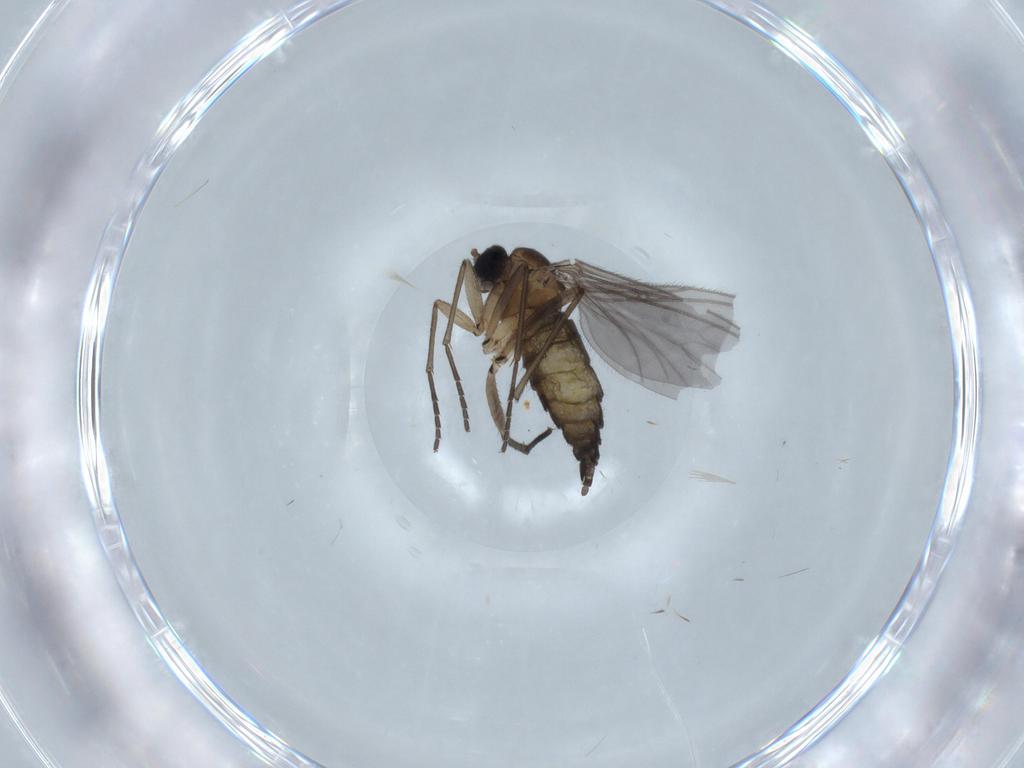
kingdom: Animalia
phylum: Arthropoda
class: Insecta
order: Diptera
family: Sciaridae
